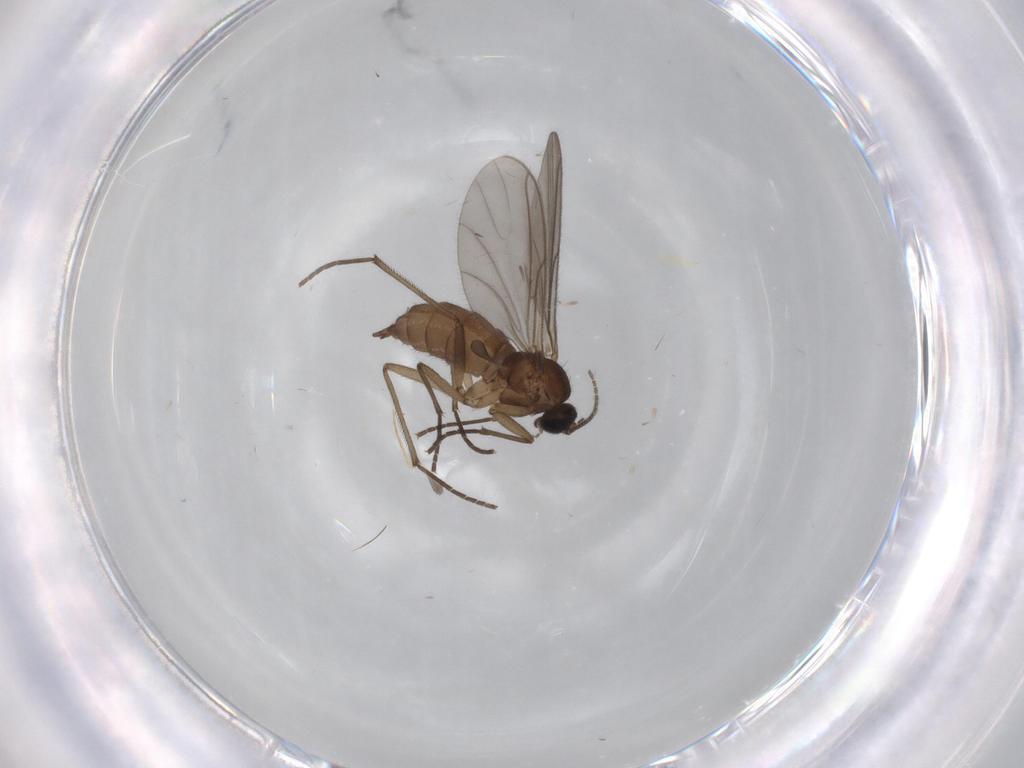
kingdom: Animalia
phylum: Arthropoda
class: Insecta
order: Diptera
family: Sciaridae
